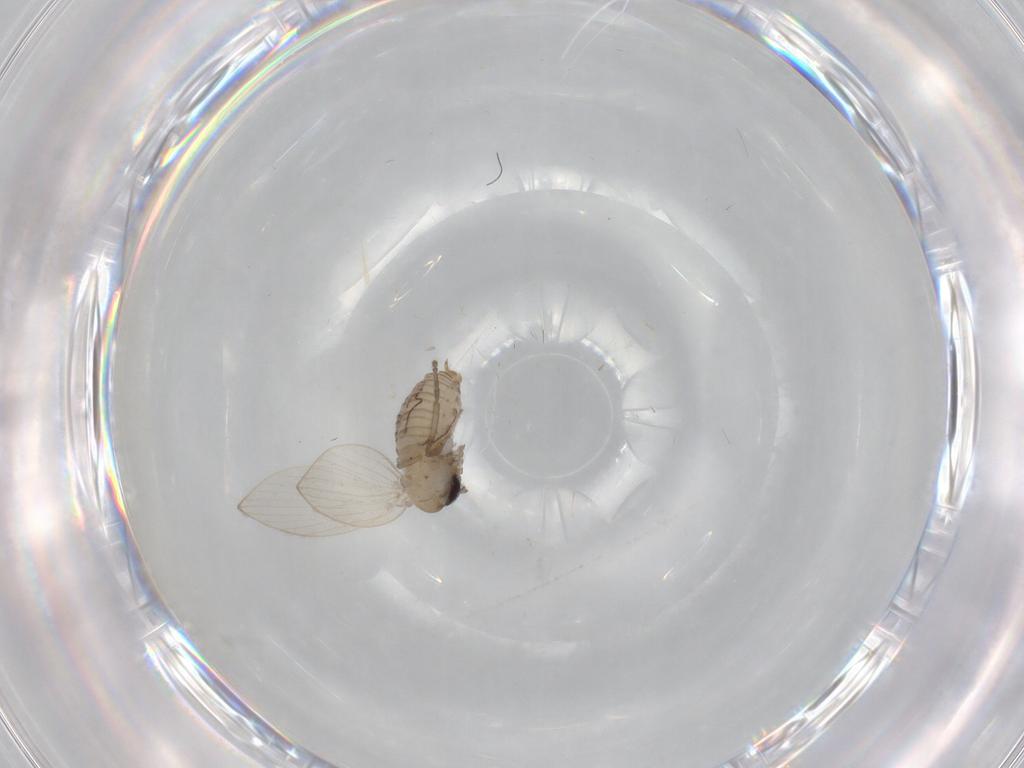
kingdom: Animalia
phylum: Arthropoda
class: Insecta
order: Diptera
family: Psychodidae
